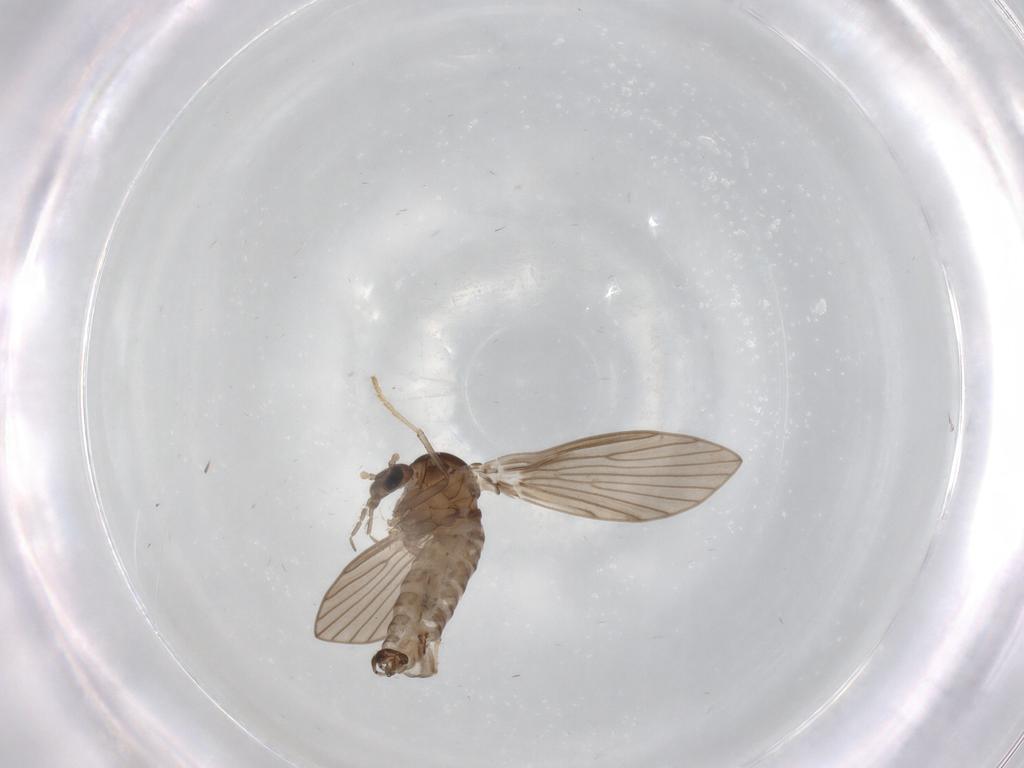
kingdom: Animalia
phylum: Arthropoda
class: Insecta
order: Diptera
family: Psychodidae
